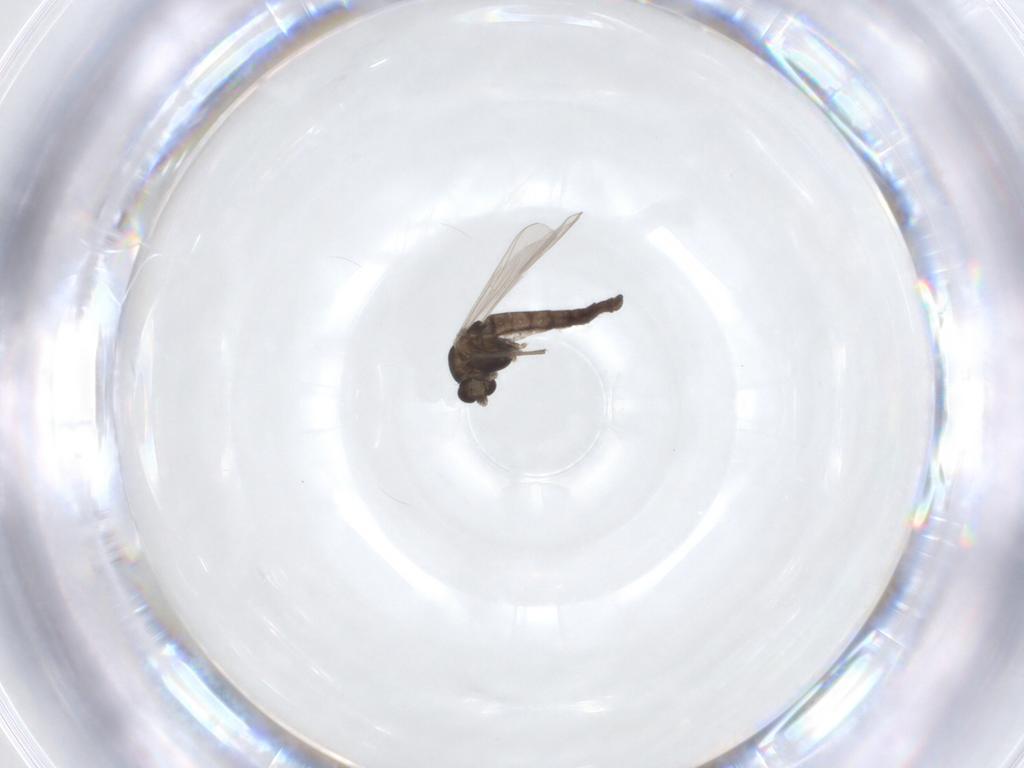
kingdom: Animalia
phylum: Arthropoda
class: Insecta
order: Diptera
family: Chironomidae
